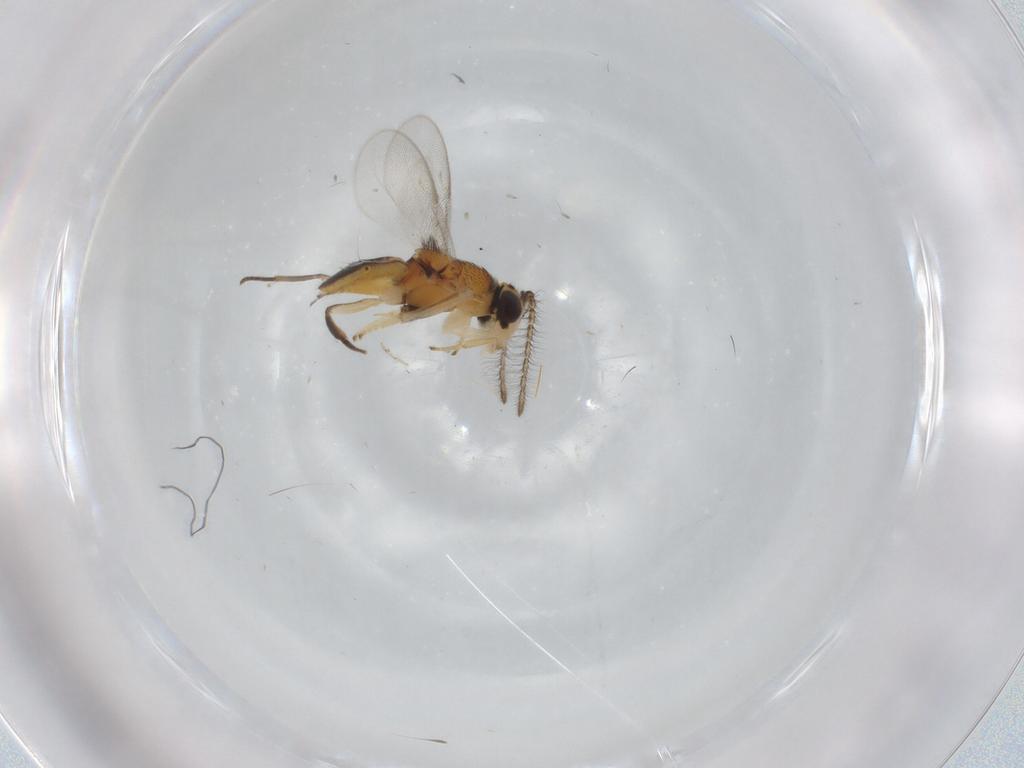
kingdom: Animalia
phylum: Arthropoda
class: Insecta
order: Hymenoptera
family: Encyrtidae
